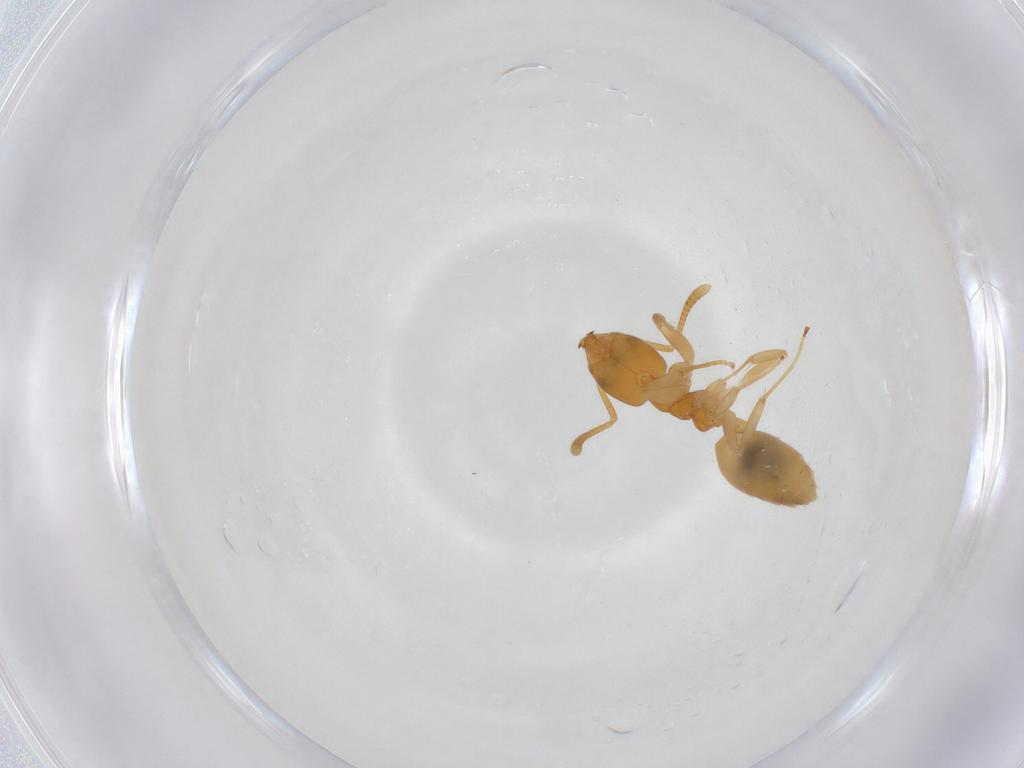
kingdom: Animalia
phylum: Arthropoda
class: Insecta
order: Hymenoptera
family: Formicidae
